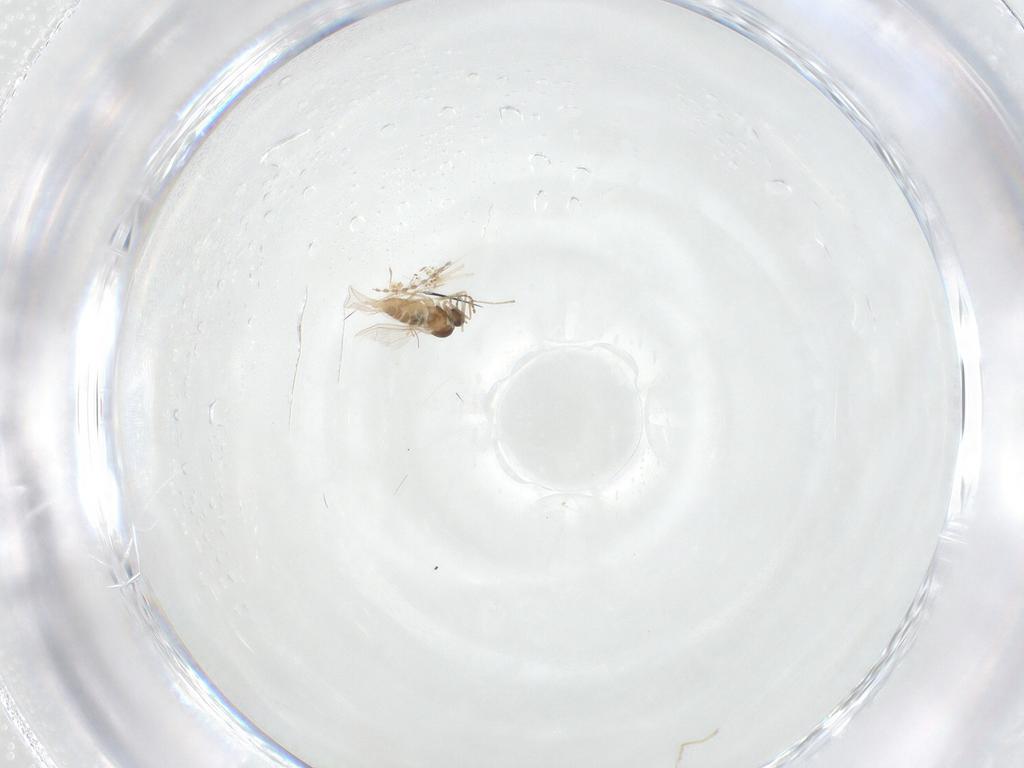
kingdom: Animalia
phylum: Arthropoda
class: Insecta
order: Diptera
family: Cecidomyiidae
